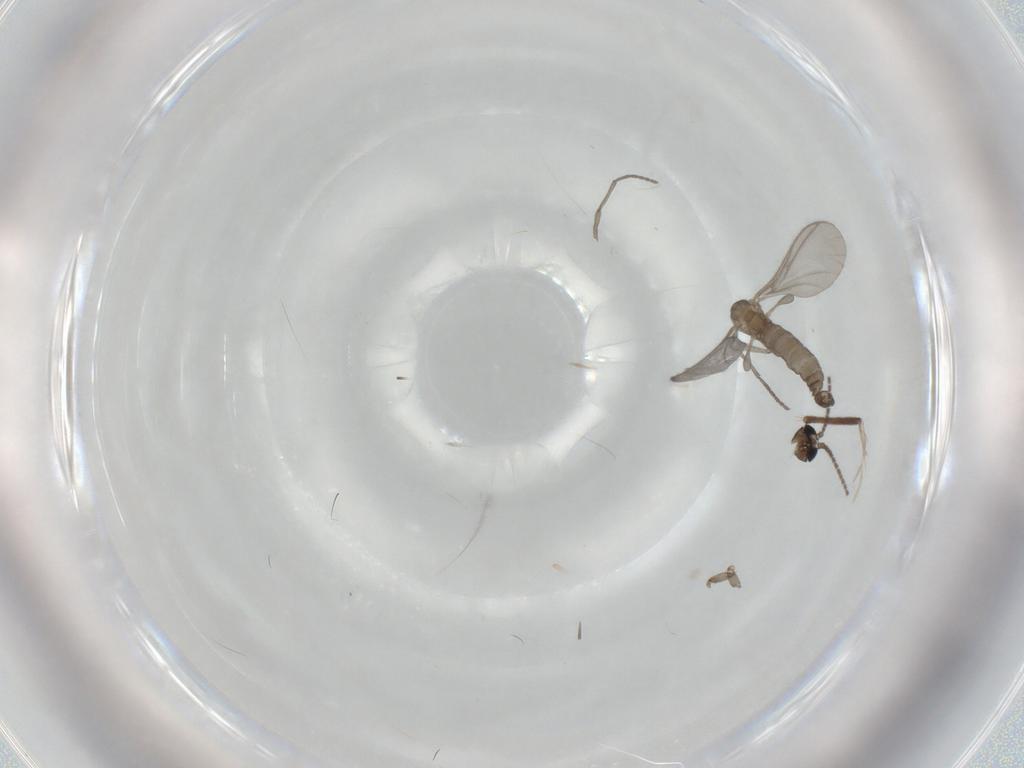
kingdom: Animalia
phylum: Arthropoda
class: Insecta
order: Diptera
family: Chironomidae
